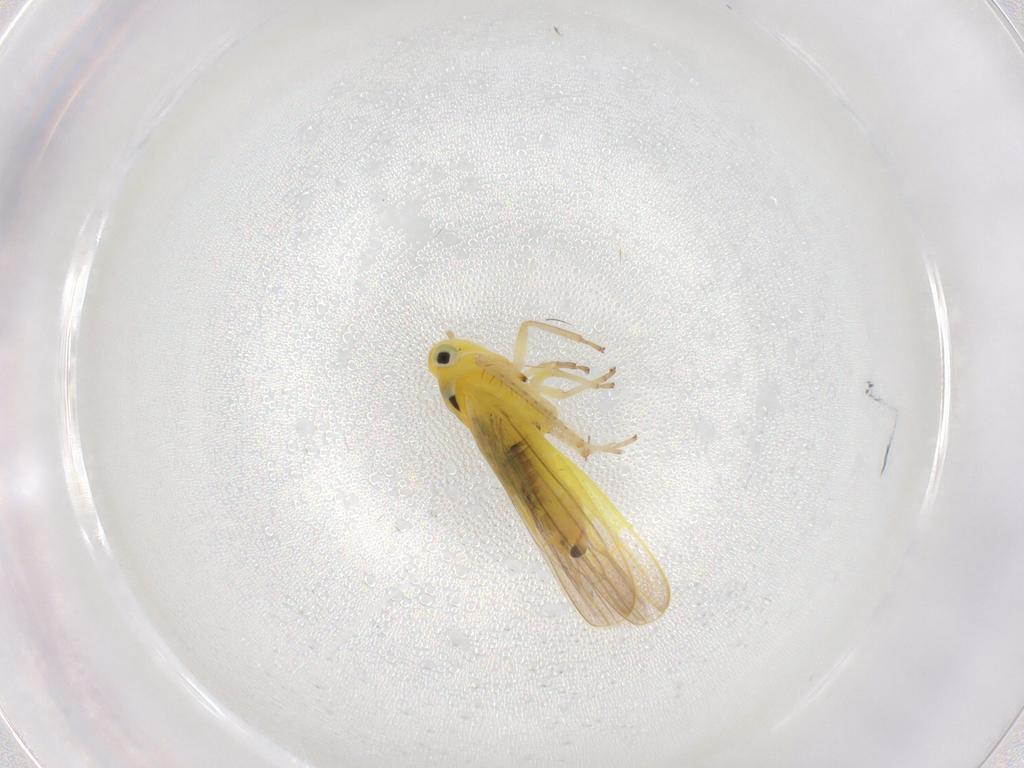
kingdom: Animalia
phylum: Arthropoda
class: Insecta
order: Hemiptera
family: Cicadellidae
